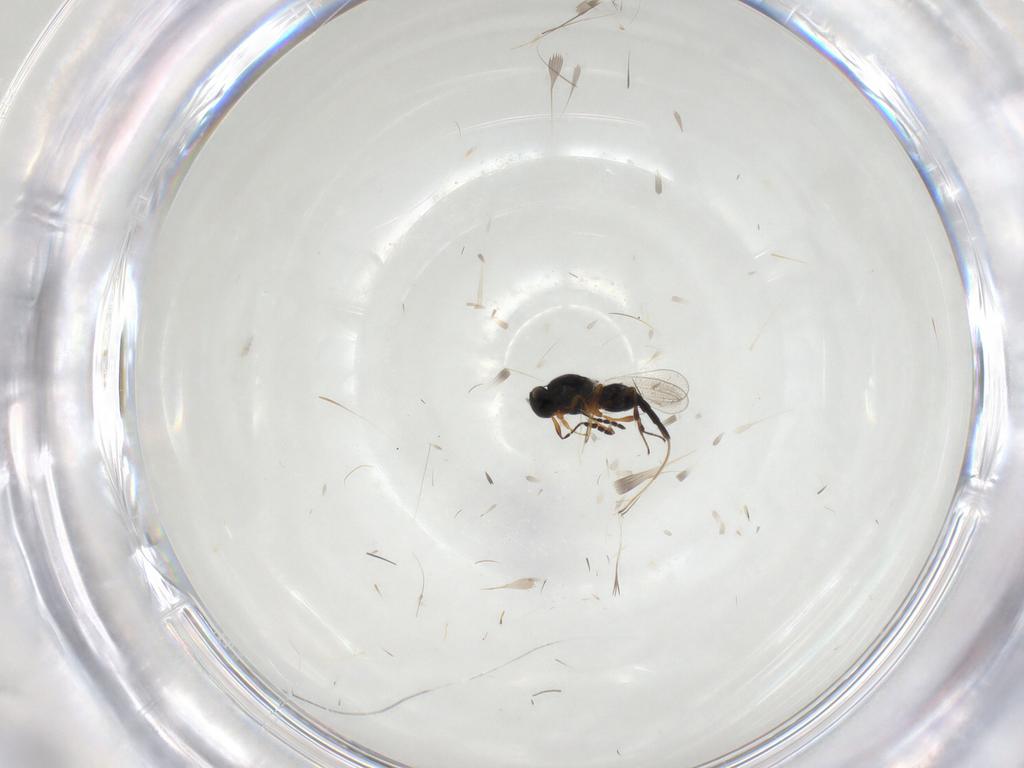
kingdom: Animalia
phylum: Arthropoda
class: Insecta
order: Hymenoptera
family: Platygastridae
